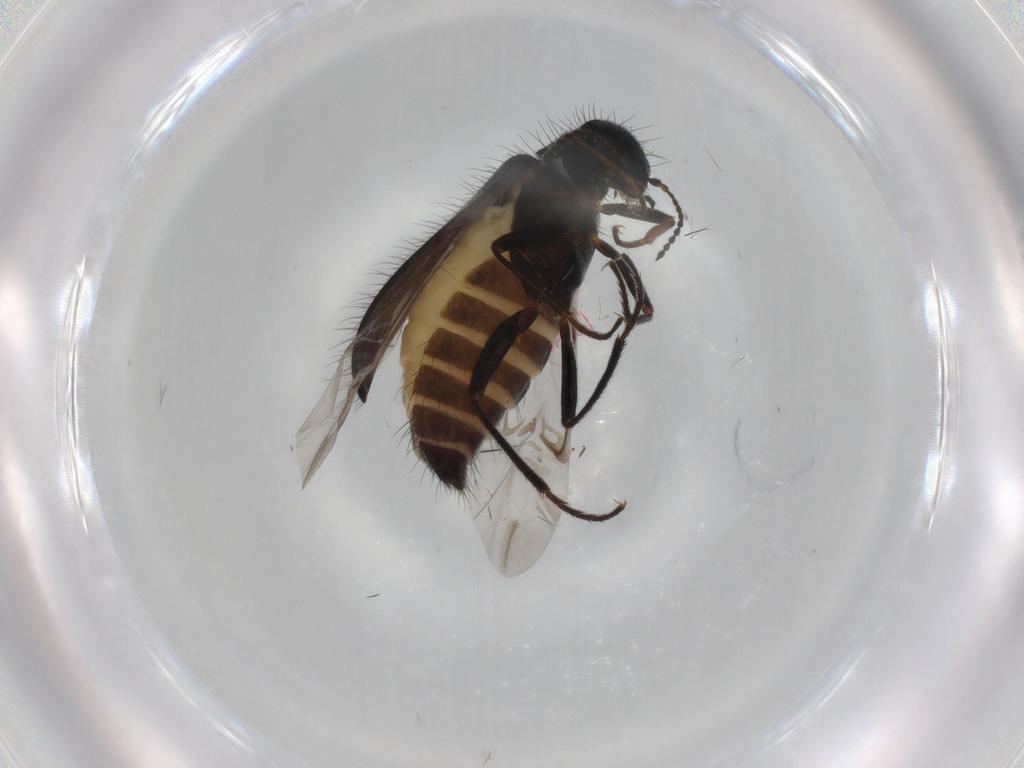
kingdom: Animalia
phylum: Arthropoda
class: Insecta
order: Coleoptera
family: Melyridae
